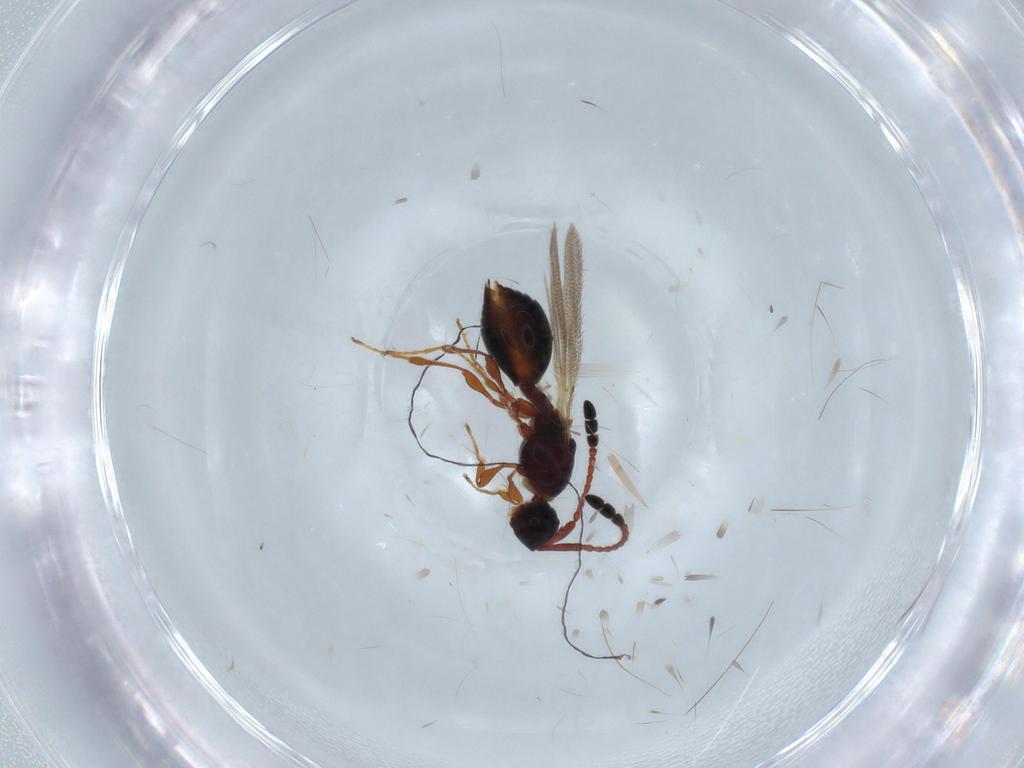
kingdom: Animalia
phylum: Arthropoda
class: Insecta
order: Hymenoptera
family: Diapriidae
